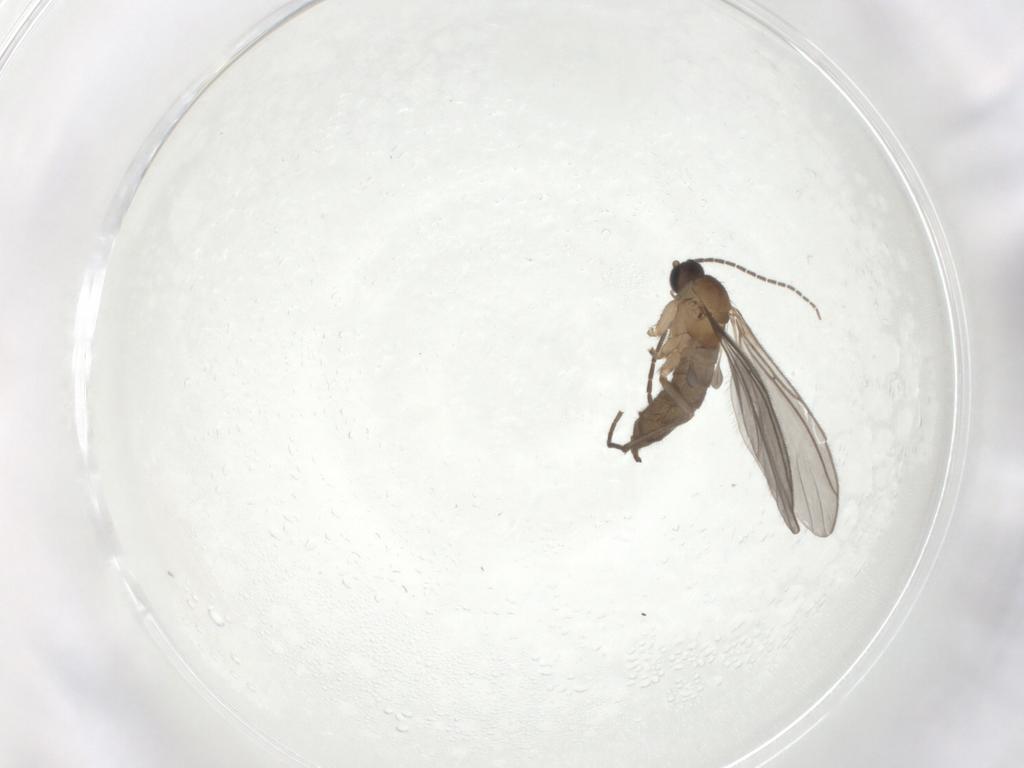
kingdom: Animalia
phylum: Arthropoda
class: Insecta
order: Diptera
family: Sciaridae
